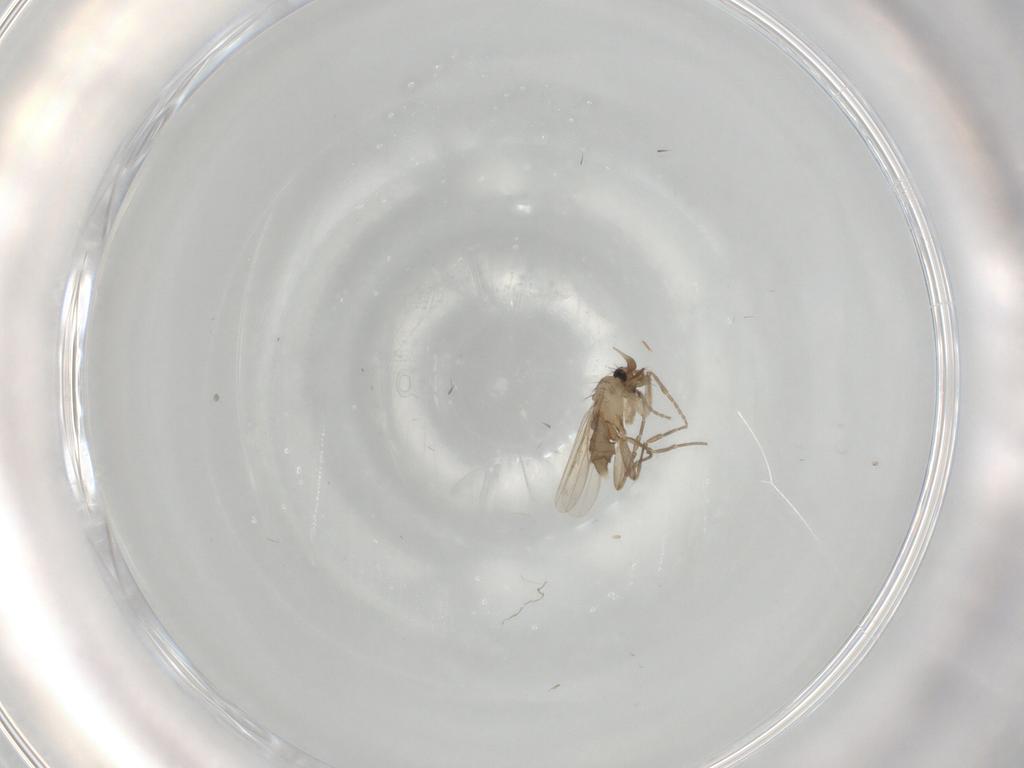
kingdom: Animalia
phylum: Arthropoda
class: Insecta
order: Diptera
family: Phoridae
